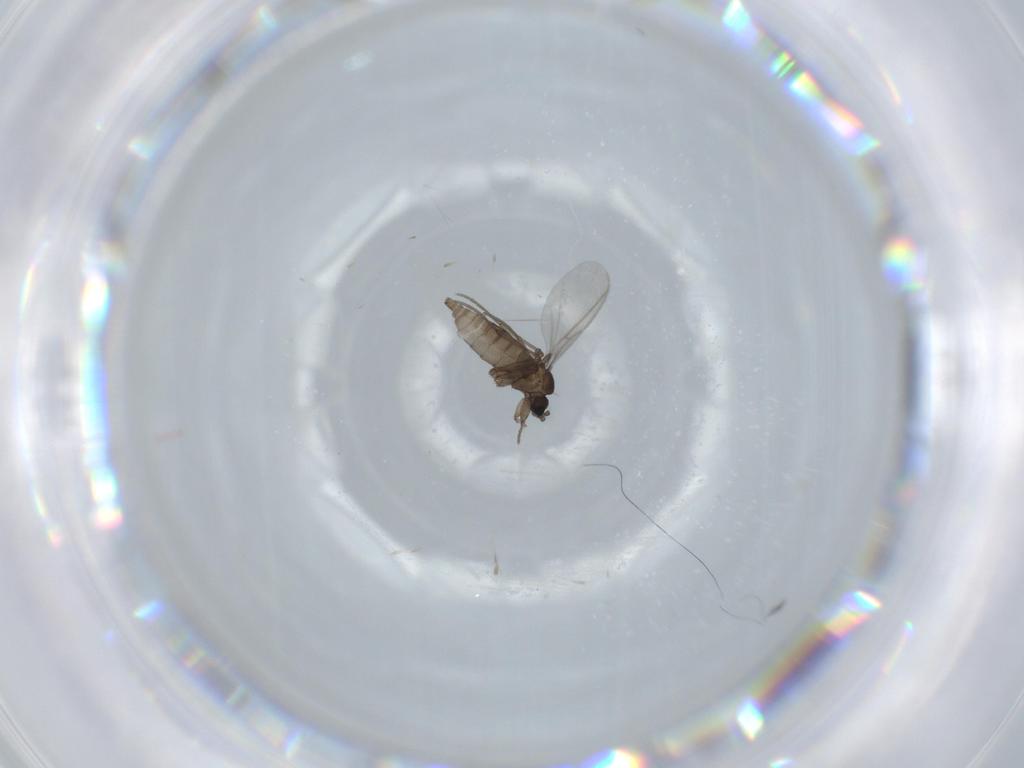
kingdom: Animalia
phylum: Arthropoda
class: Insecta
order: Diptera
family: Sciaridae
